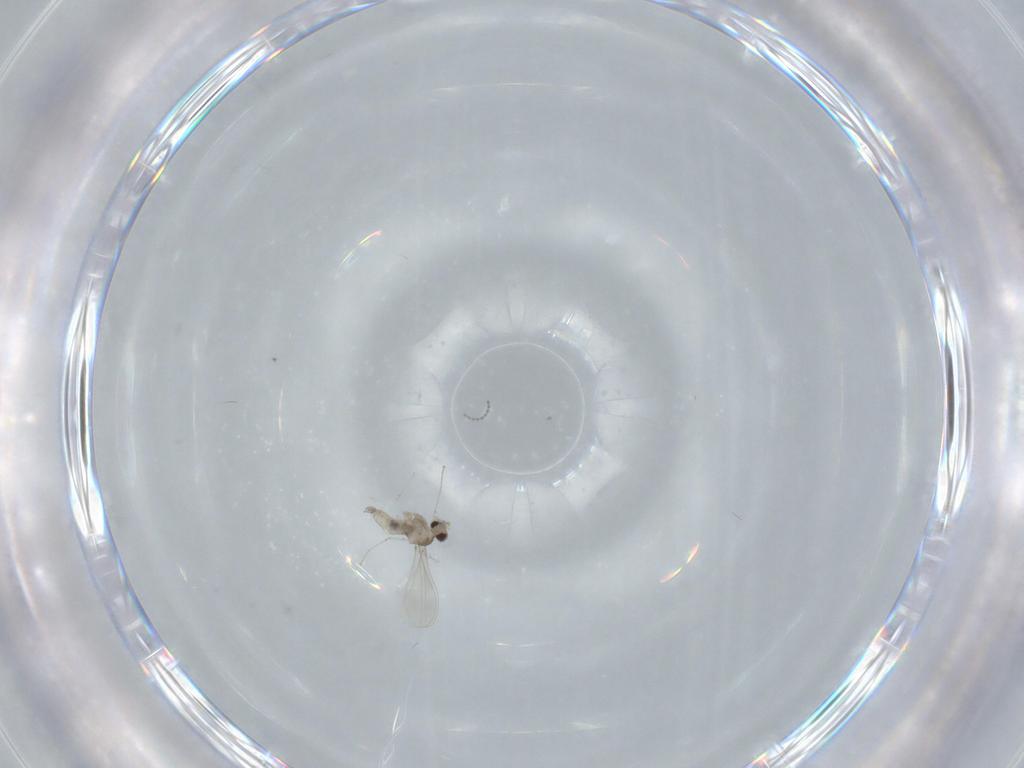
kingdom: Animalia
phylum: Arthropoda
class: Insecta
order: Diptera
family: Cecidomyiidae
